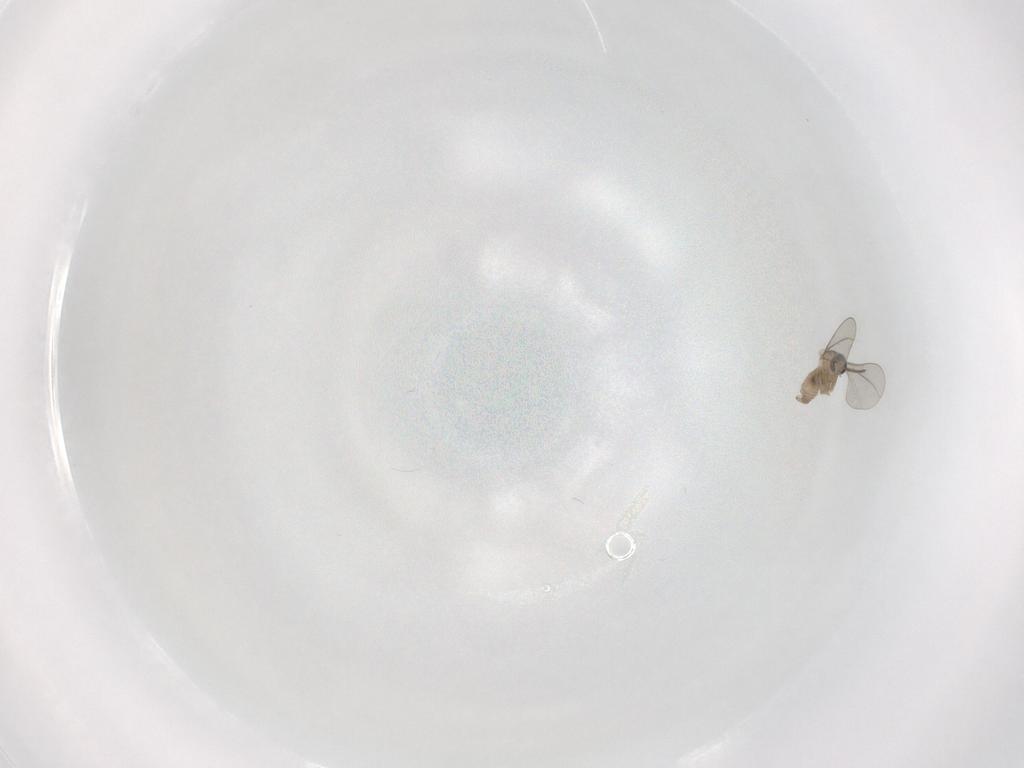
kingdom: Animalia
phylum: Arthropoda
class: Insecta
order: Diptera
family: Cecidomyiidae
